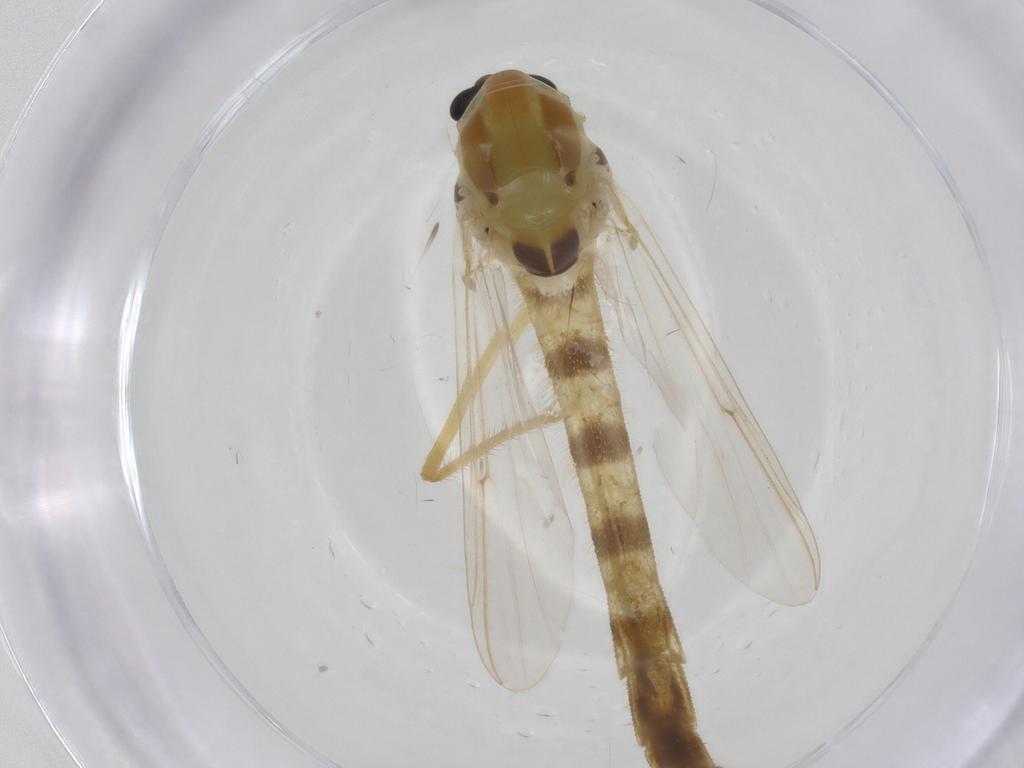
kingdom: Animalia
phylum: Arthropoda
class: Insecta
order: Diptera
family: Chironomidae
